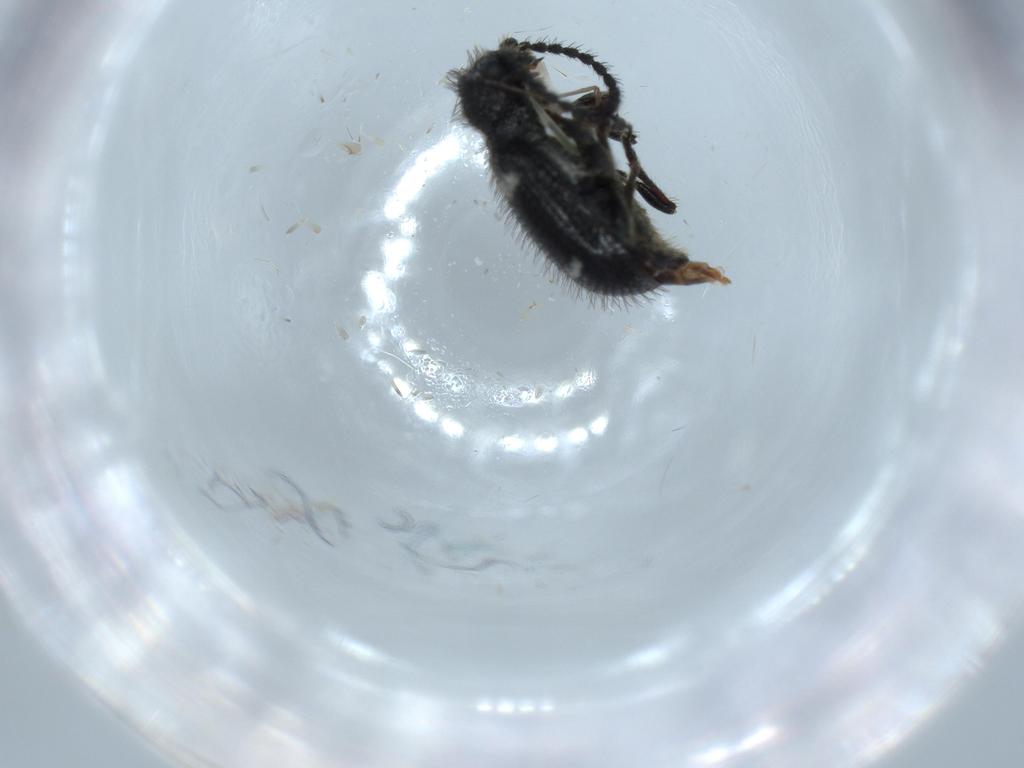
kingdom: Animalia
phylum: Arthropoda
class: Insecta
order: Coleoptera
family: Ptinidae
